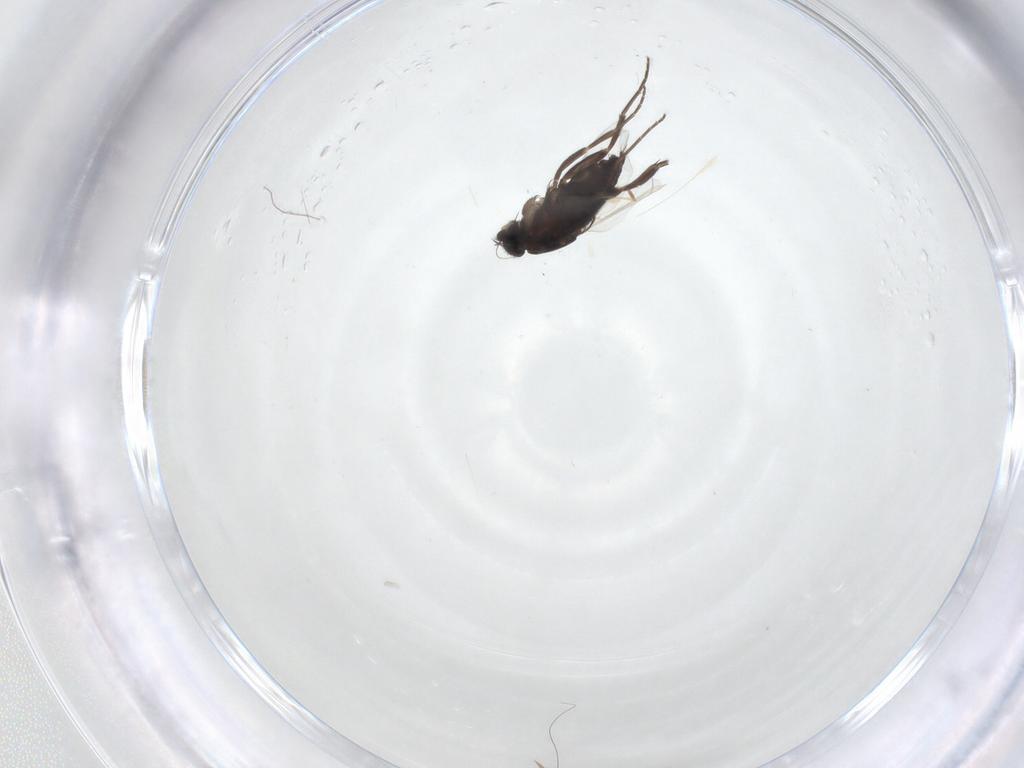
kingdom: Animalia
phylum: Arthropoda
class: Insecta
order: Diptera
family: Phoridae
